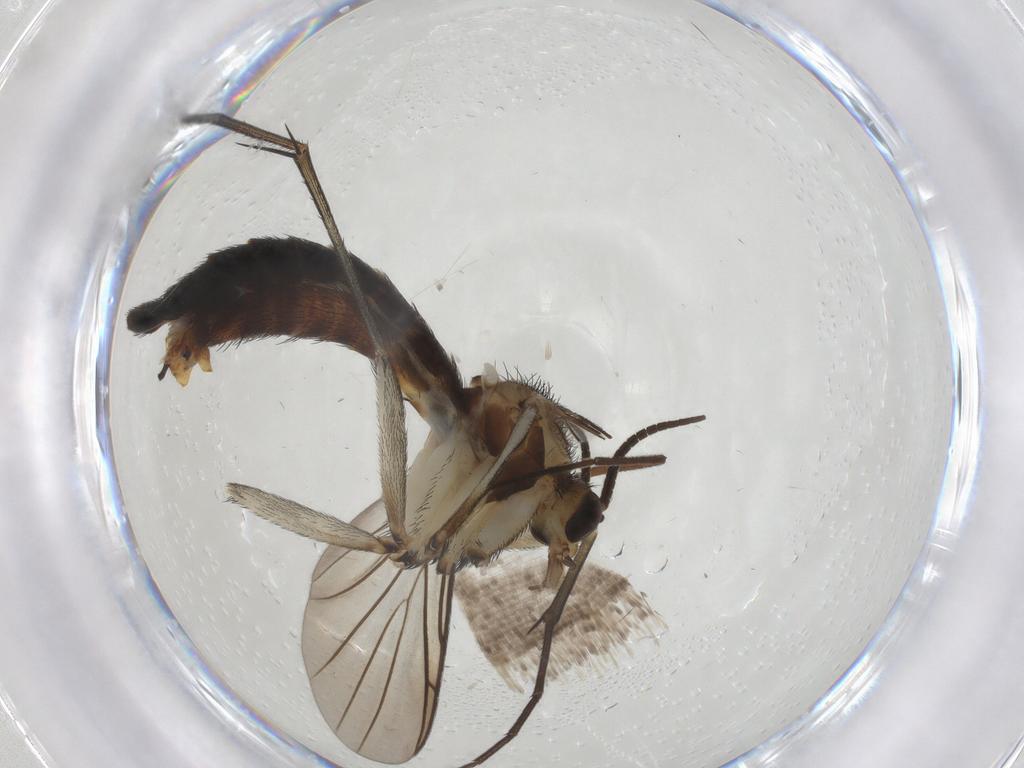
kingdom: Animalia
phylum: Arthropoda
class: Insecta
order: Diptera
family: Keroplatidae
